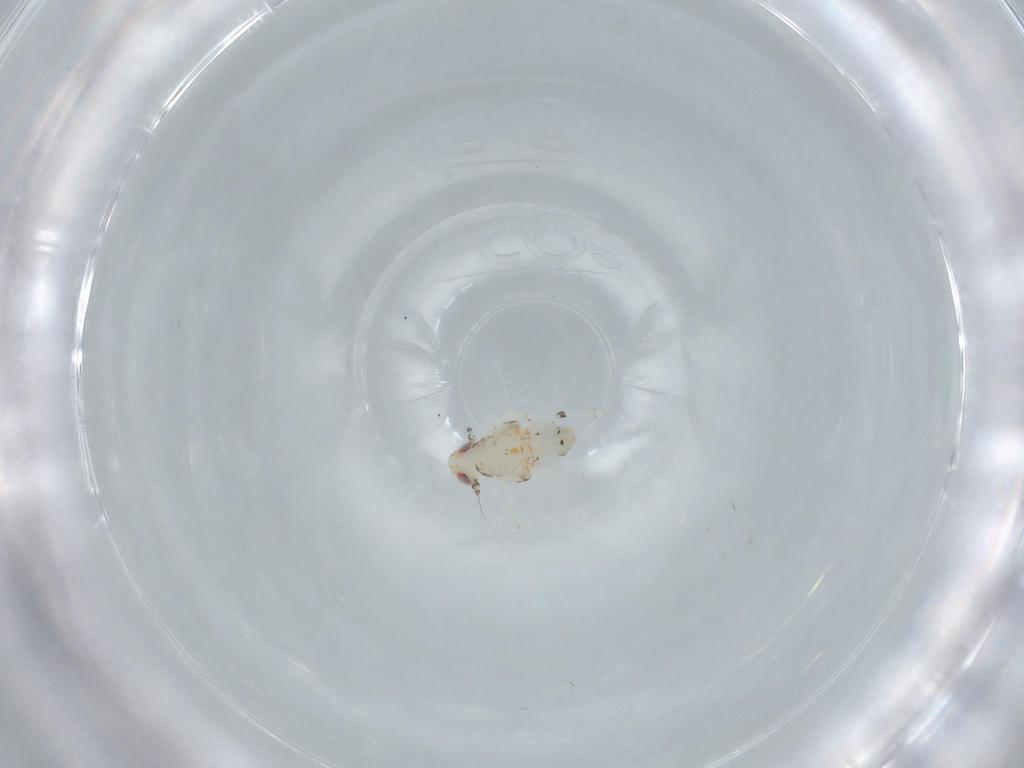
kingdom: Animalia
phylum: Arthropoda
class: Insecta
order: Hemiptera
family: Nogodinidae
